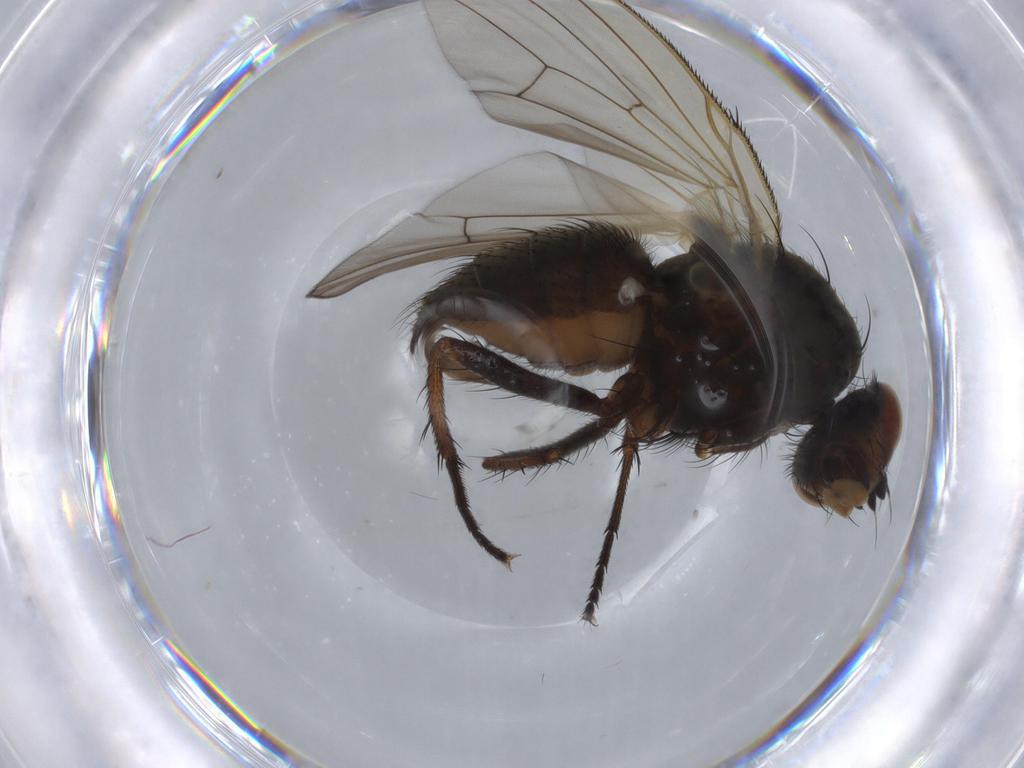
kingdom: Animalia
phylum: Arthropoda
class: Insecta
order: Diptera
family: Anthomyiidae
